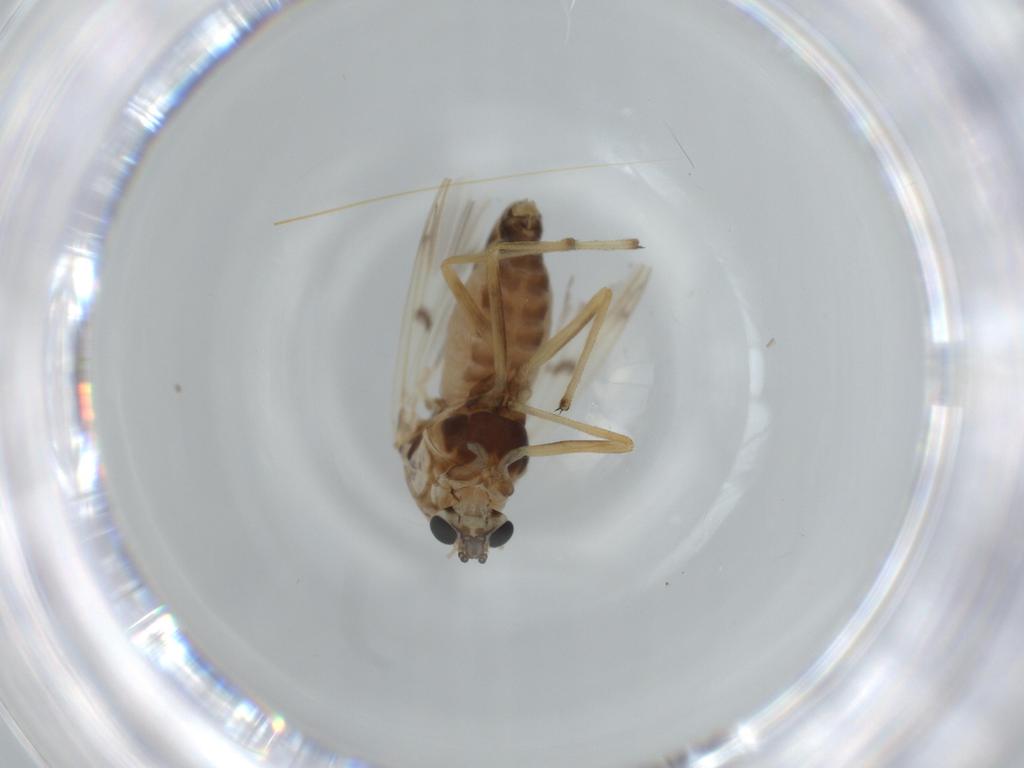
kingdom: Animalia
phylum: Arthropoda
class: Insecta
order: Diptera
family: Chironomidae
